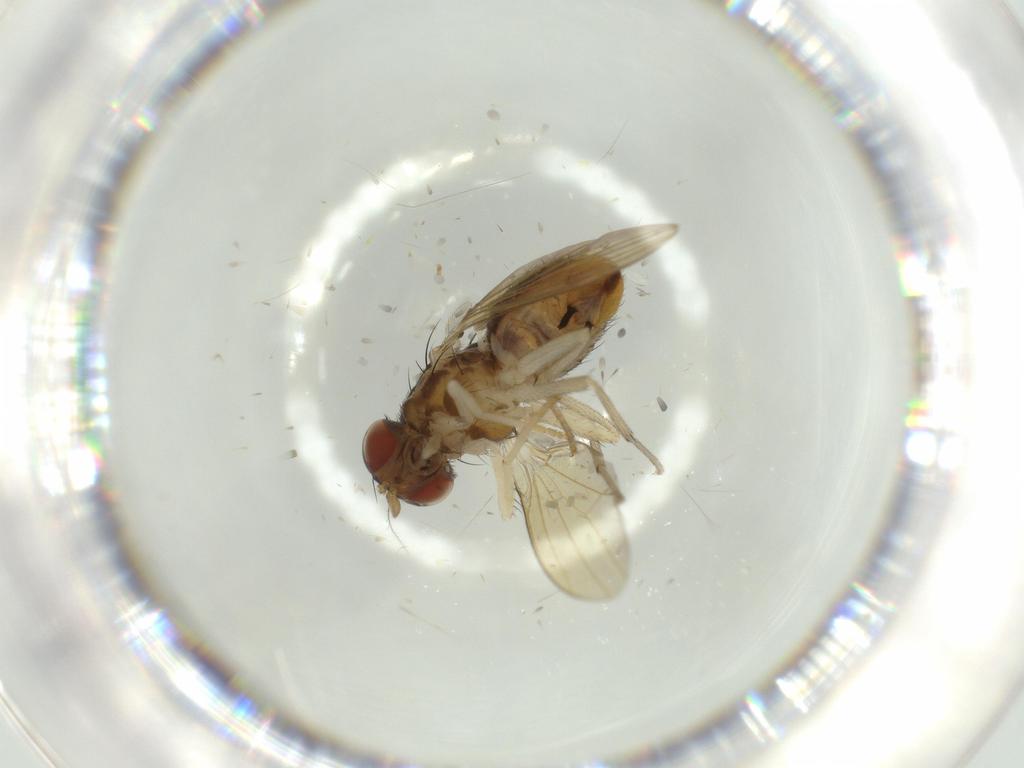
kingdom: Animalia
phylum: Arthropoda
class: Insecta
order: Diptera
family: Sciaridae
